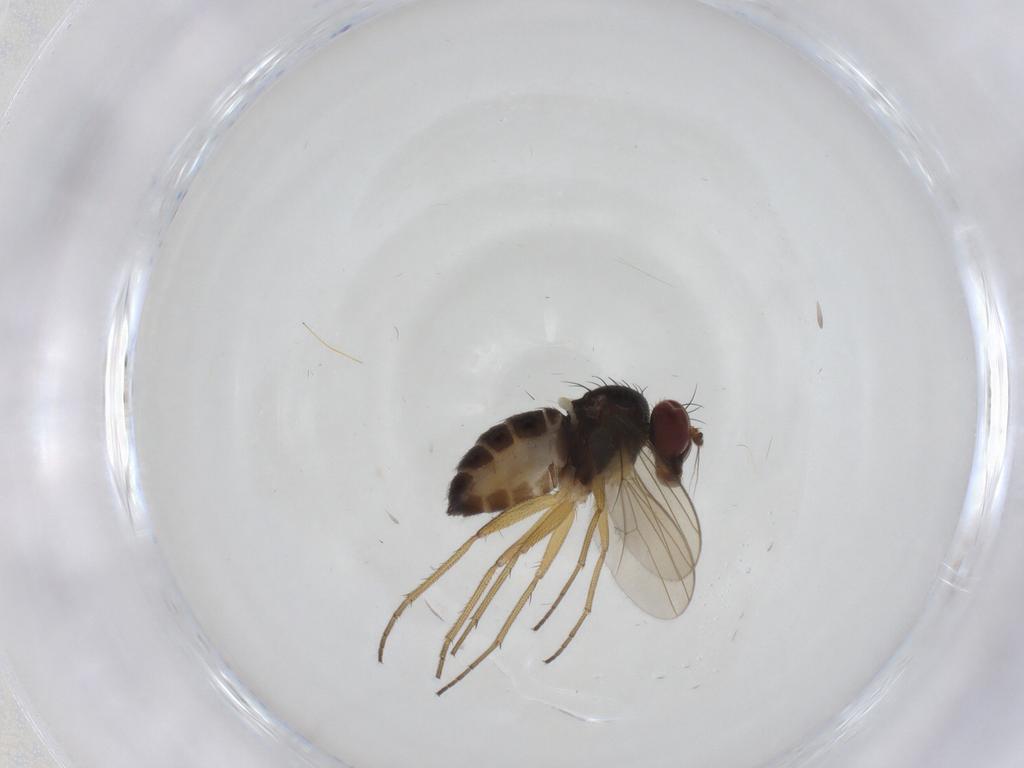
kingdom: Animalia
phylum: Arthropoda
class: Insecta
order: Diptera
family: Dolichopodidae
